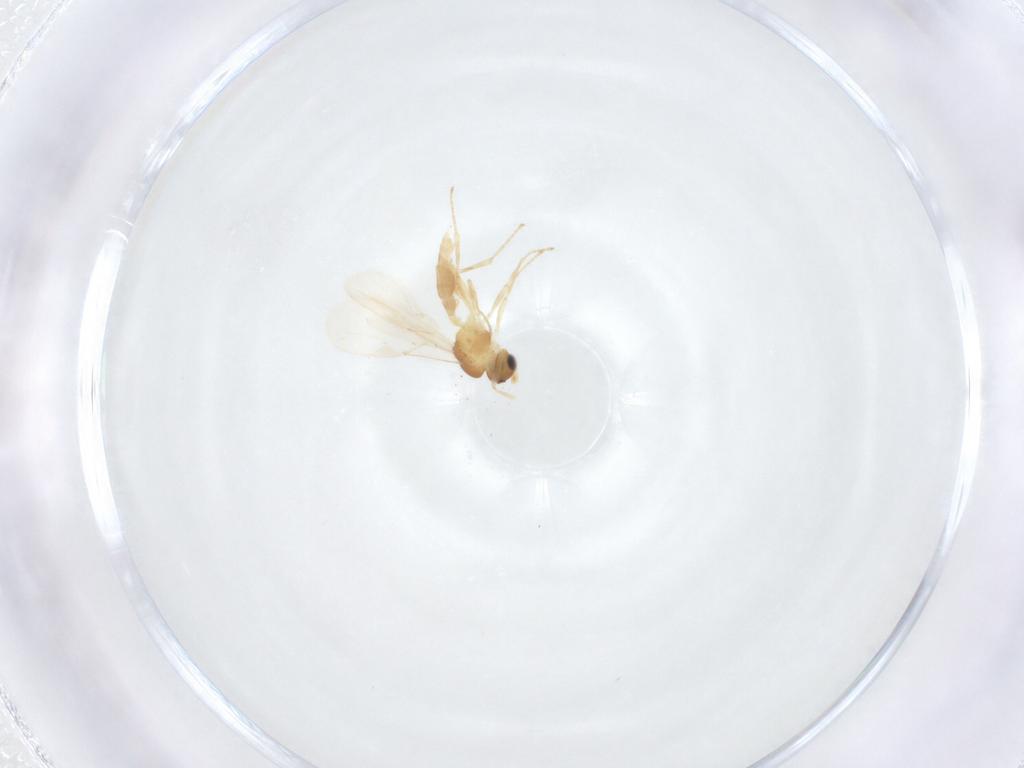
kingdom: Animalia
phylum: Arthropoda
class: Insecta
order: Hymenoptera
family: Braconidae
